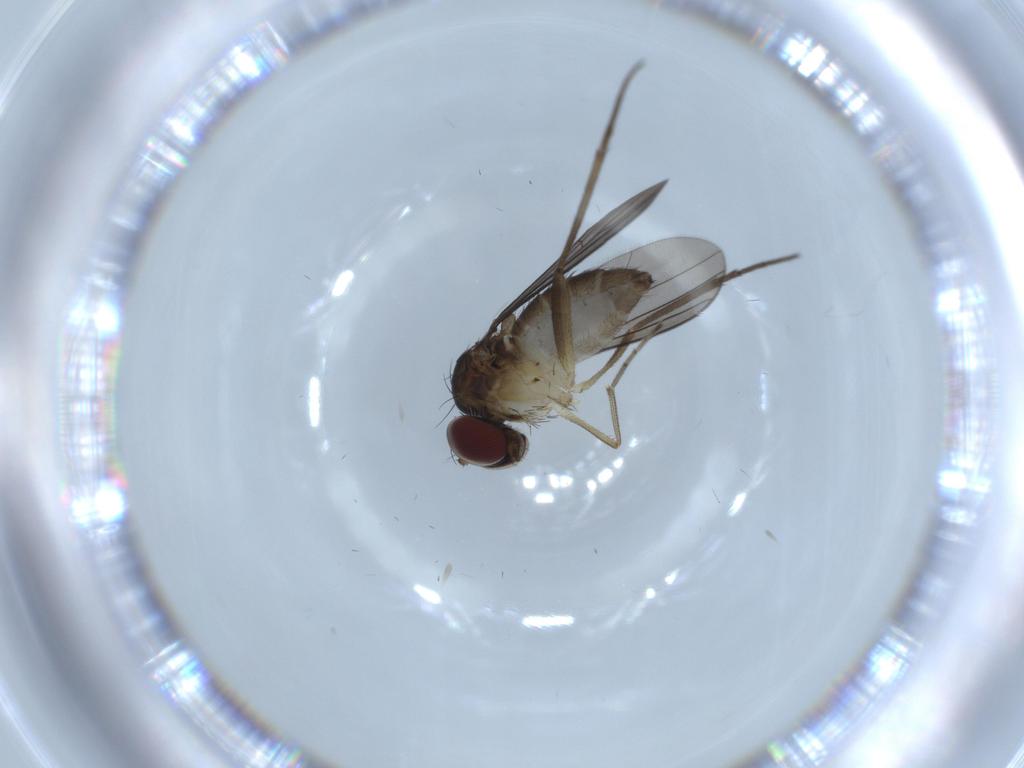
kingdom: Animalia
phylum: Arthropoda
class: Insecta
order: Diptera
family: Dolichopodidae
